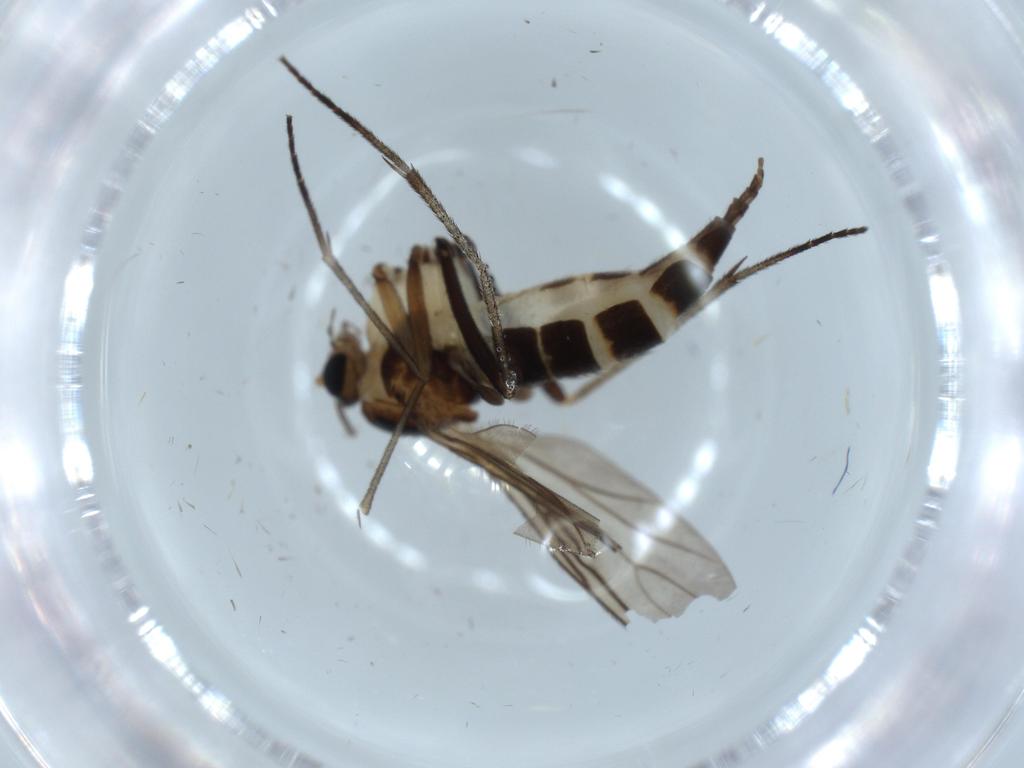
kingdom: Animalia
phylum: Arthropoda
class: Insecta
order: Diptera
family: Sciaridae
